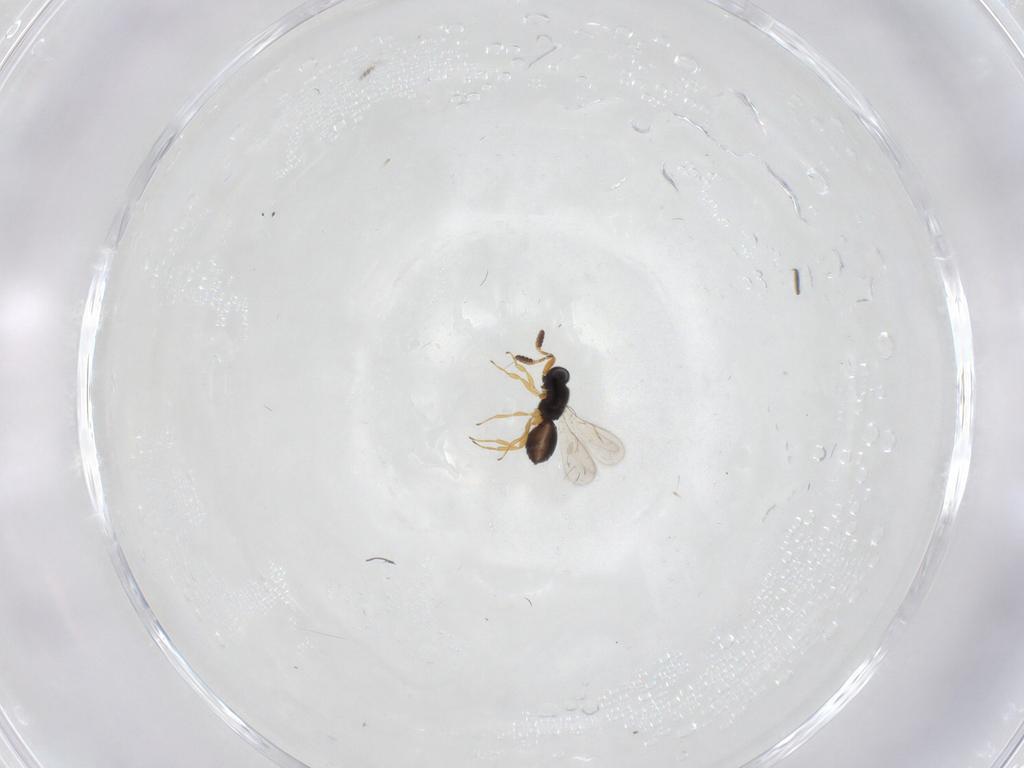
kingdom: Animalia
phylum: Arthropoda
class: Insecta
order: Hymenoptera
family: Scelionidae
